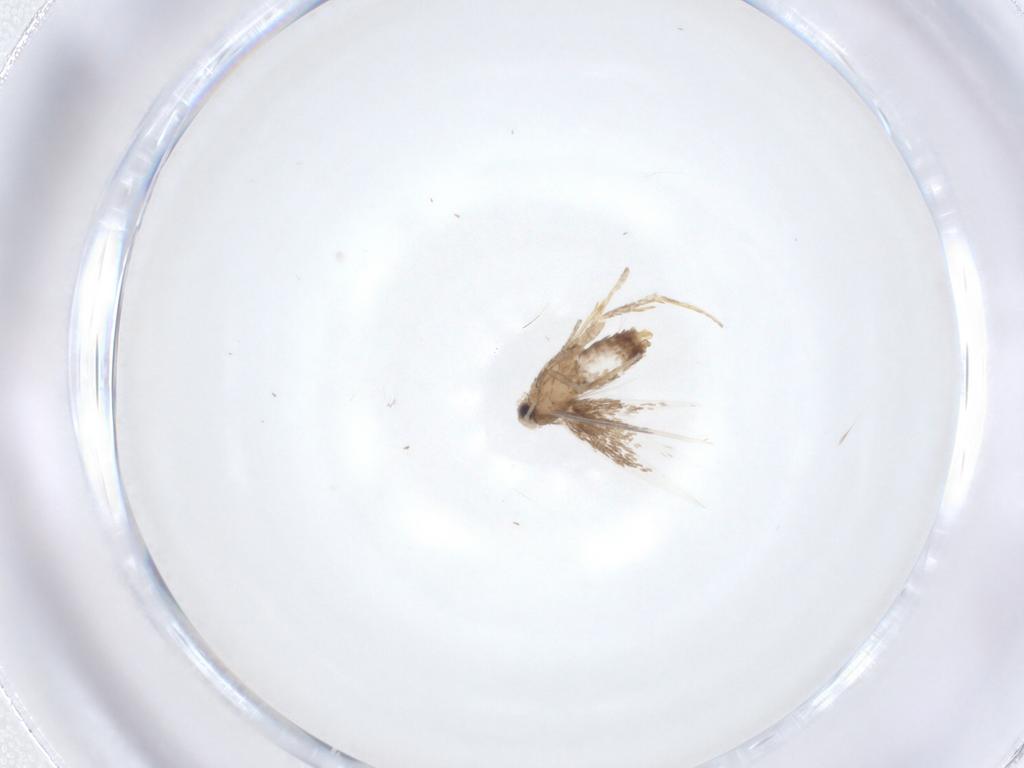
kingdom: Animalia
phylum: Arthropoda
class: Insecta
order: Lepidoptera
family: Nepticulidae
